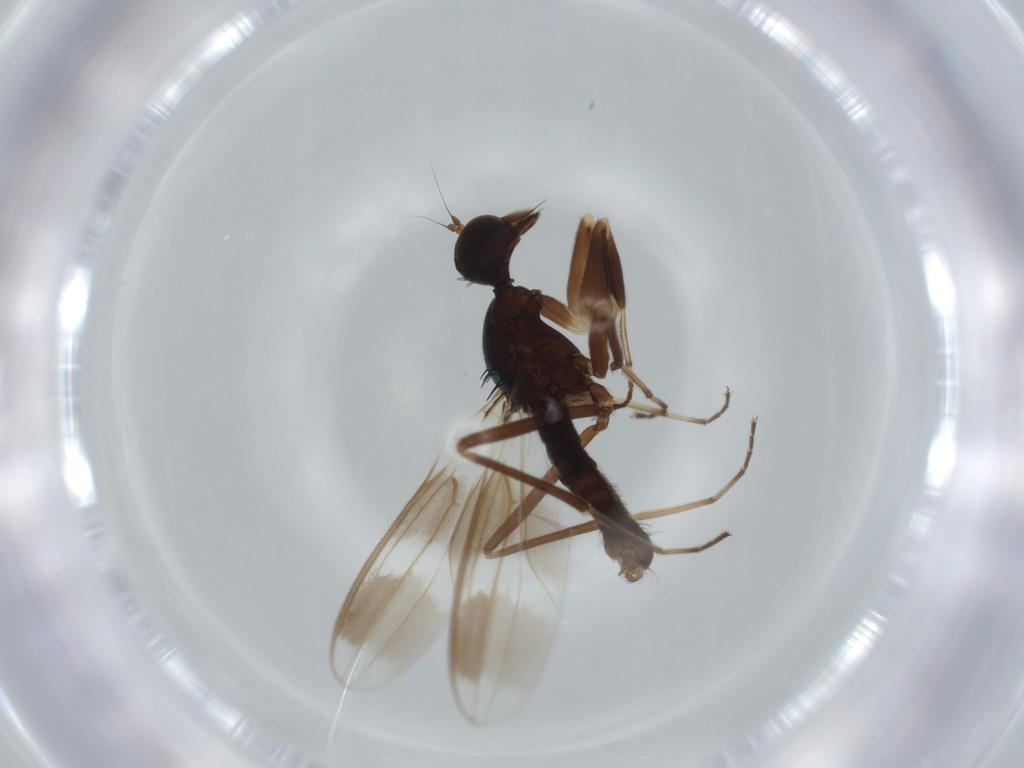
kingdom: Animalia
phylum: Arthropoda
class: Insecta
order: Diptera
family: Hybotidae
